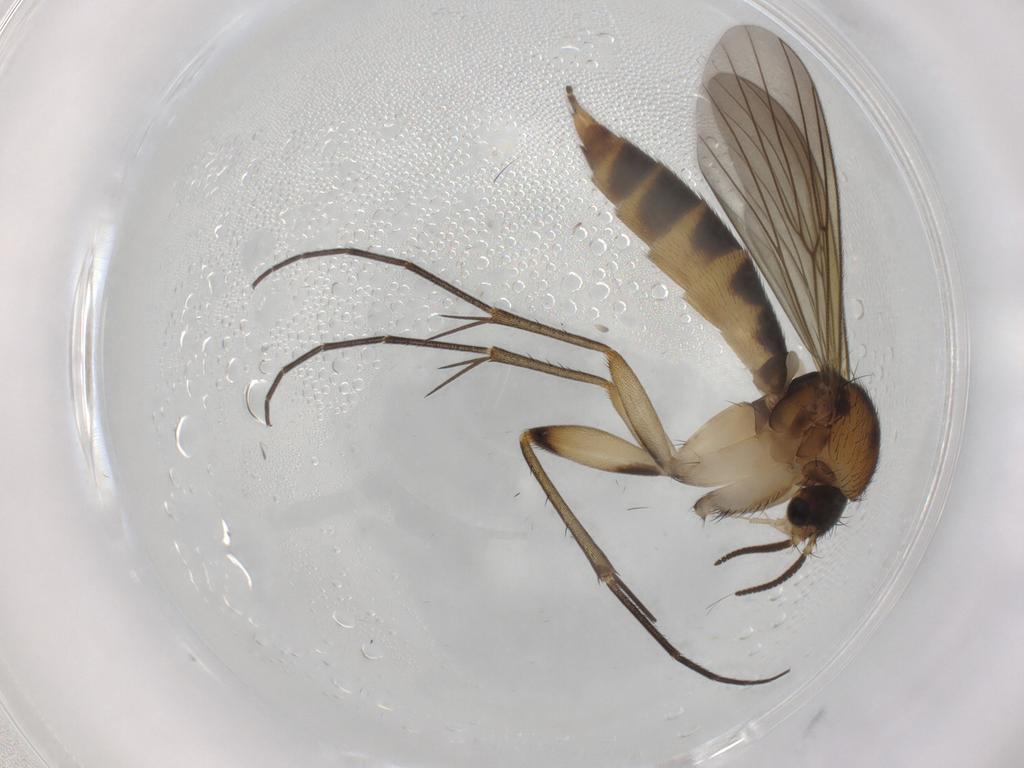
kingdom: Animalia
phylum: Arthropoda
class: Insecta
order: Diptera
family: Mycetophilidae
